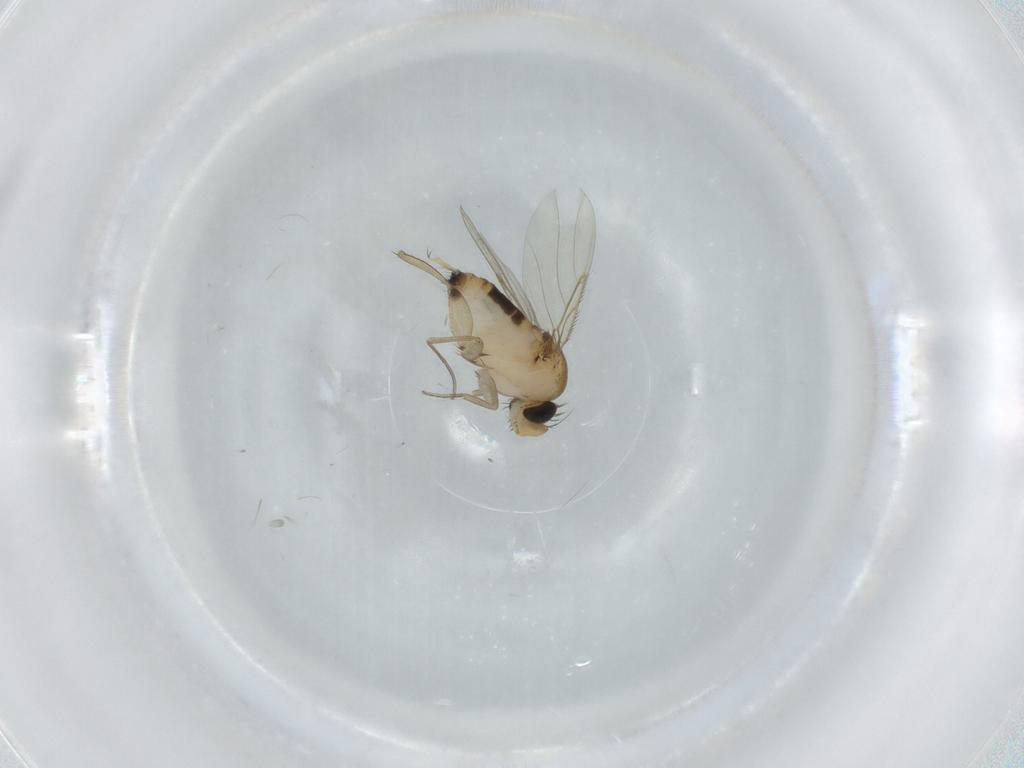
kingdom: Animalia
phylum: Arthropoda
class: Insecta
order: Diptera
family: Phoridae
